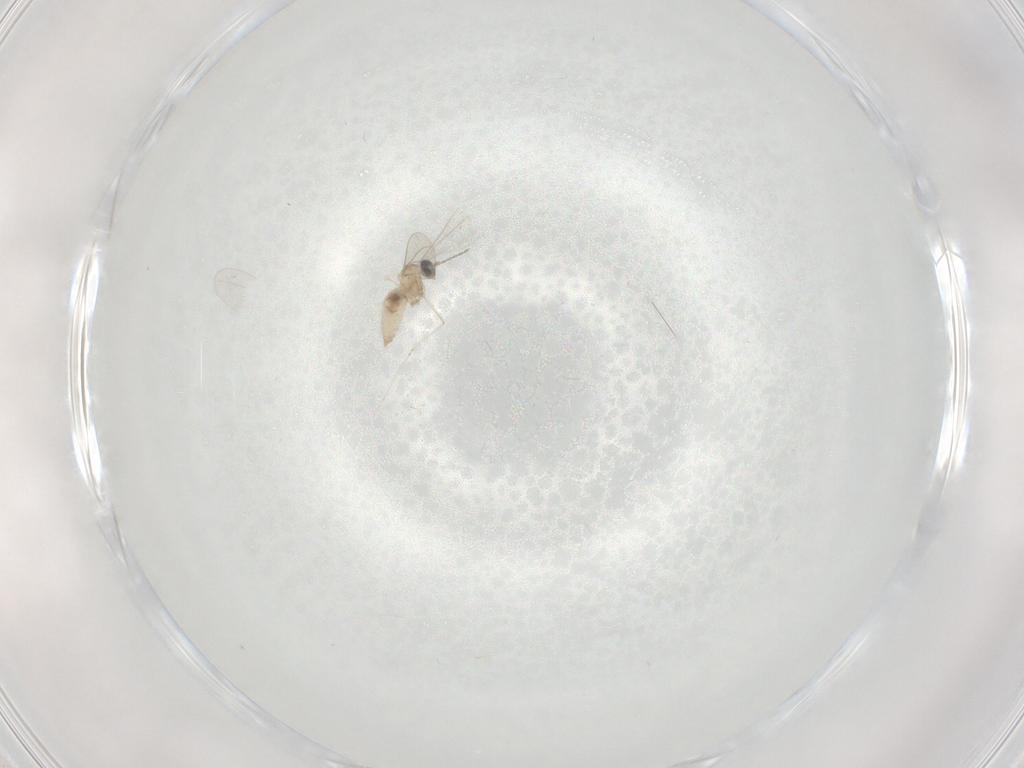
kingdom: Animalia
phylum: Arthropoda
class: Insecta
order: Diptera
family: Cecidomyiidae
